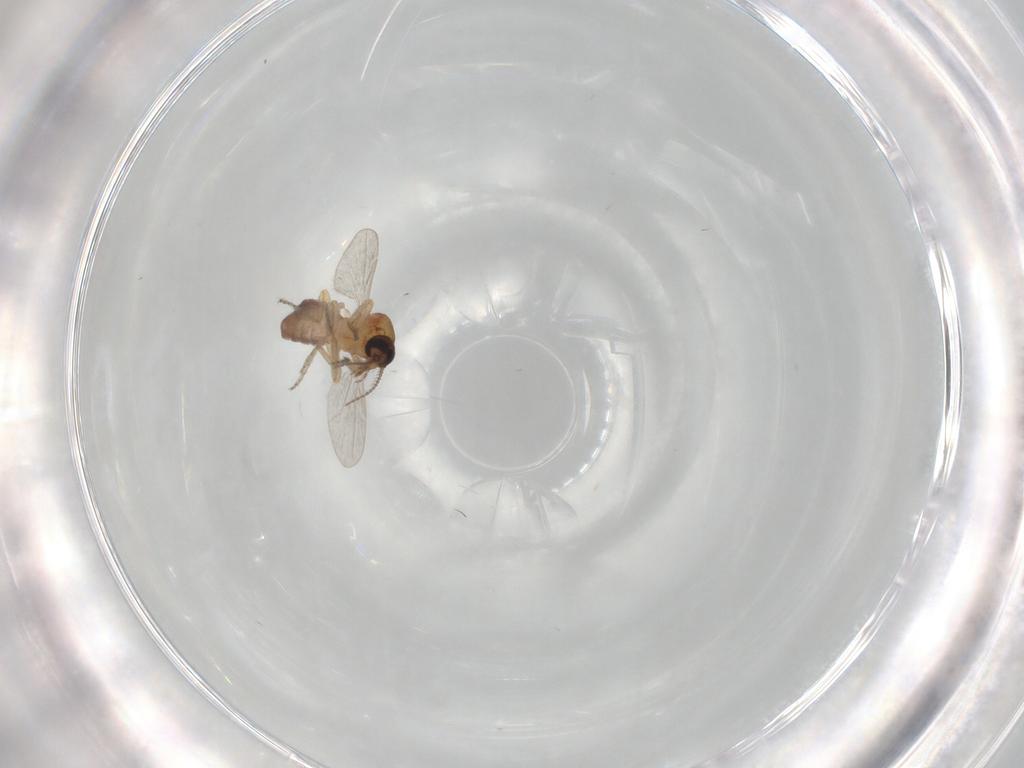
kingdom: Animalia
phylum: Arthropoda
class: Insecta
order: Diptera
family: Ceratopogonidae
